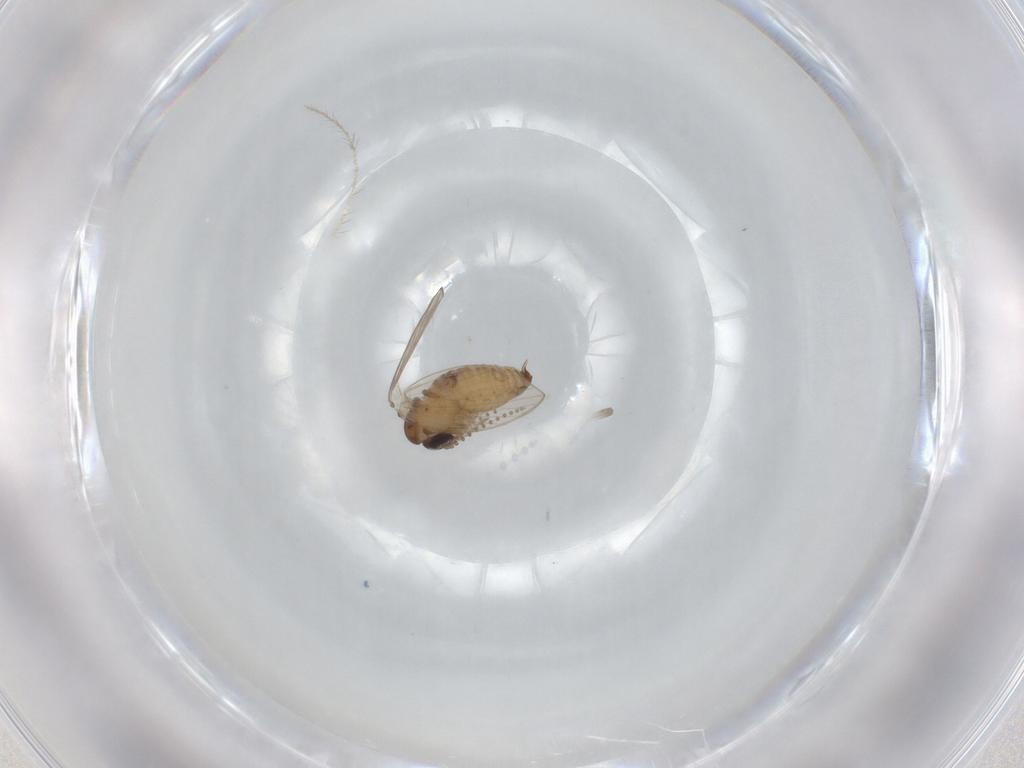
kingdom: Animalia
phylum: Arthropoda
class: Insecta
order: Diptera
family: Psychodidae
